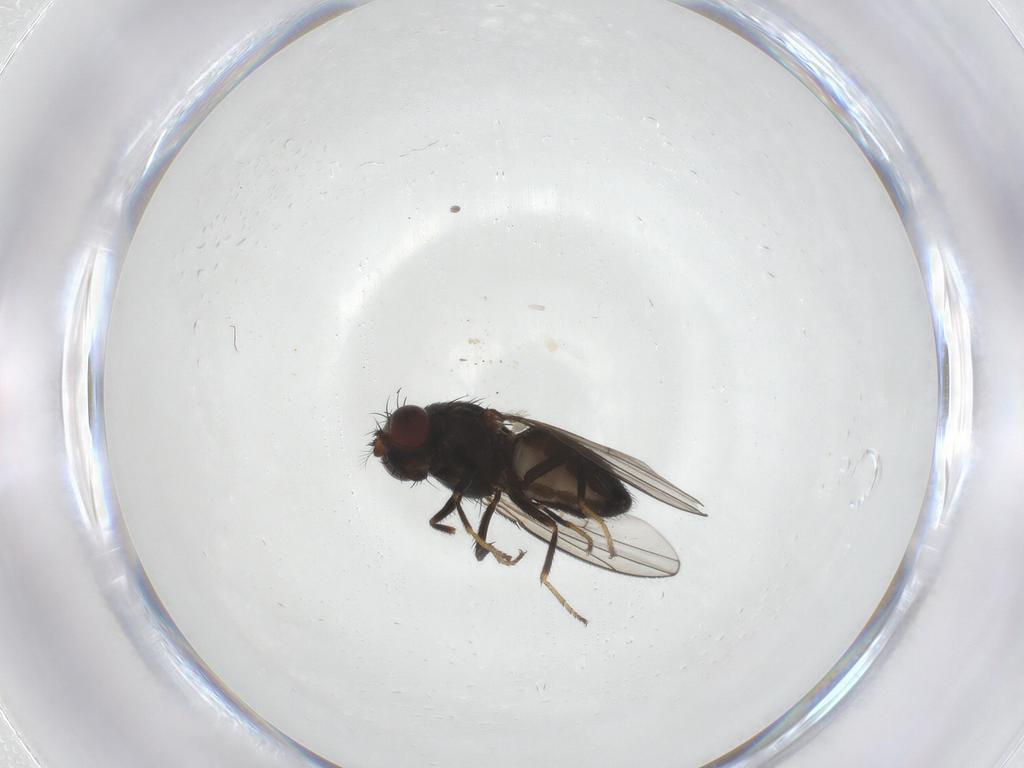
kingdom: Animalia
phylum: Arthropoda
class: Insecta
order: Diptera
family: Ephydridae
